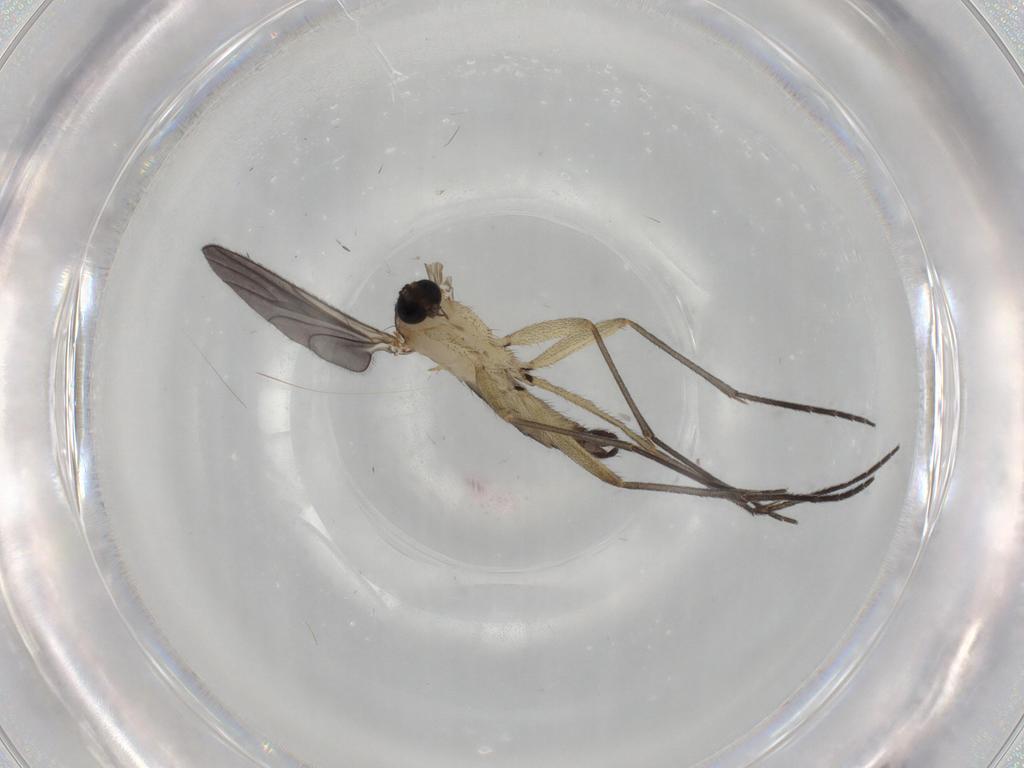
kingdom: Animalia
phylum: Arthropoda
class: Insecta
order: Diptera
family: Sciaridae
